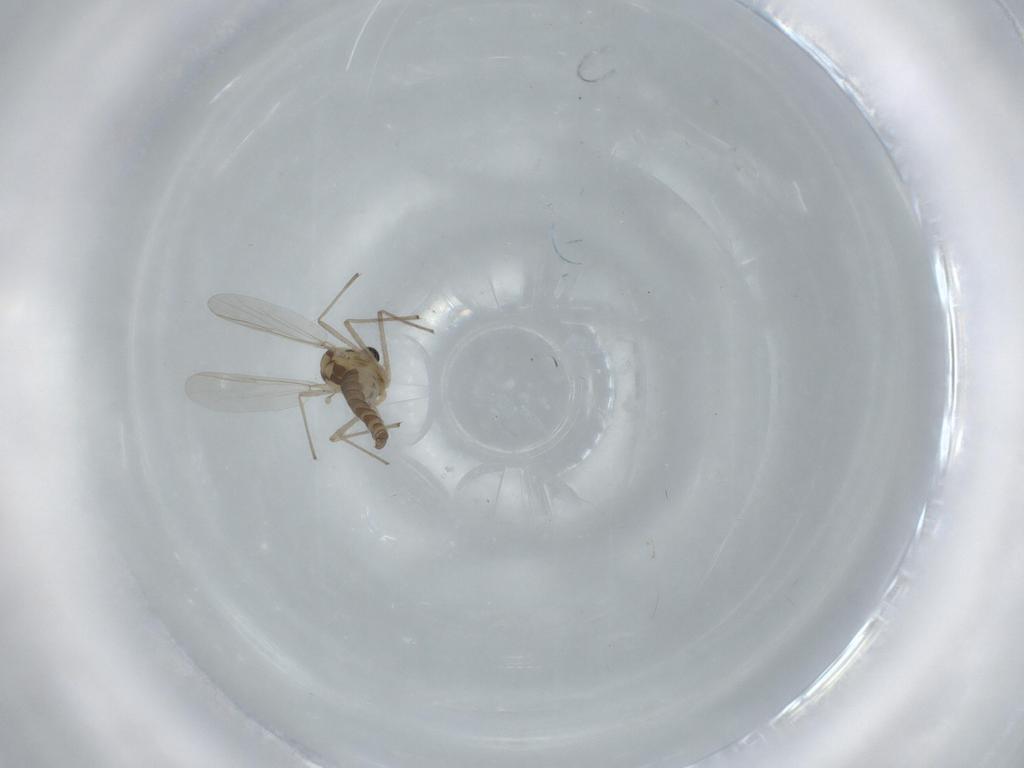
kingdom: Animalia
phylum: Arthropoda
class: Insecta
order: Diptera
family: Chironomidae
